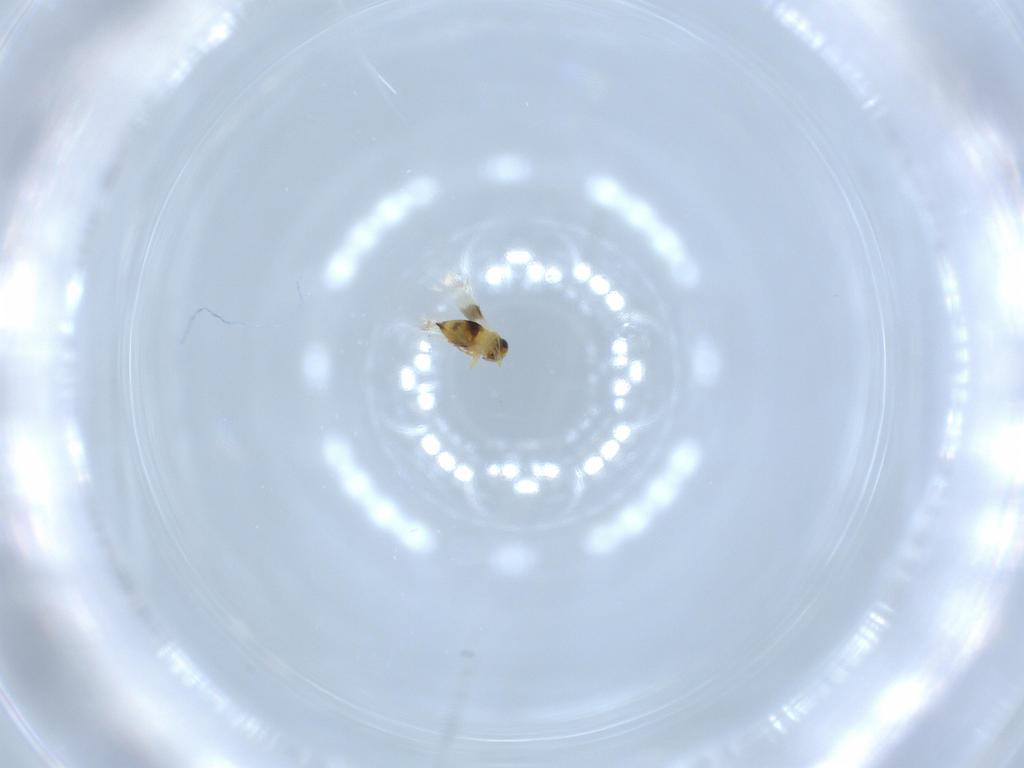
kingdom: Animalia
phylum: Arthropoda
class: Insecta
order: Hymenoptera
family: Signiphoridae
